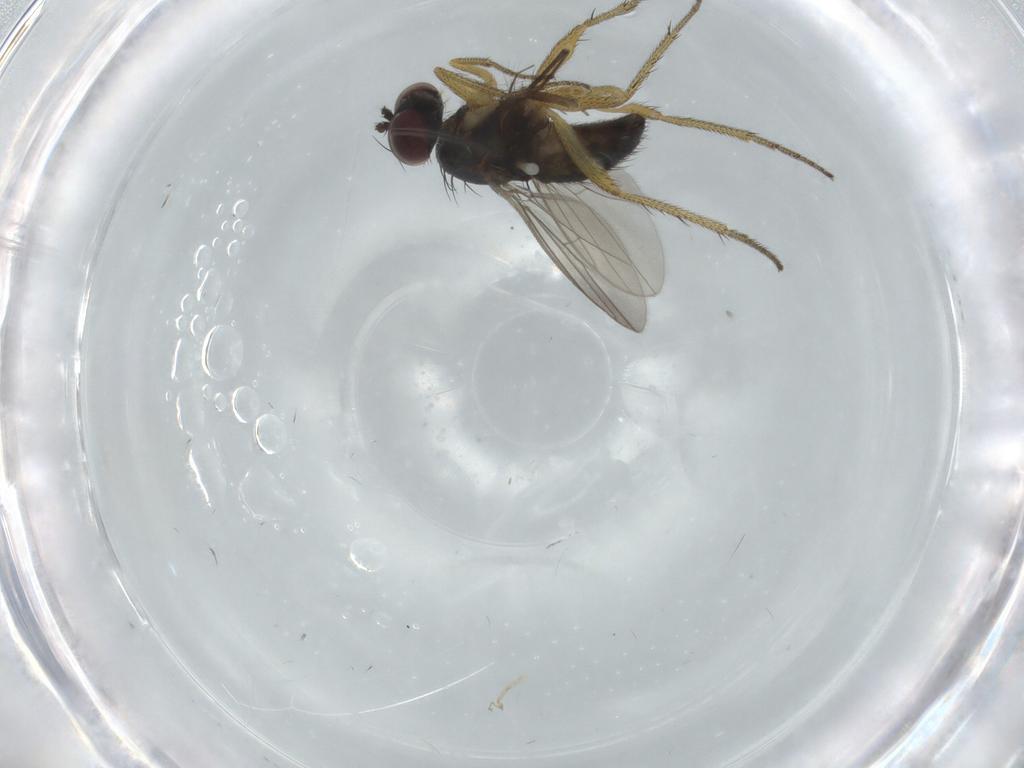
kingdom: Animalia
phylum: Arthropoda
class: Insecta
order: Diptera
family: Dolichopodidae
